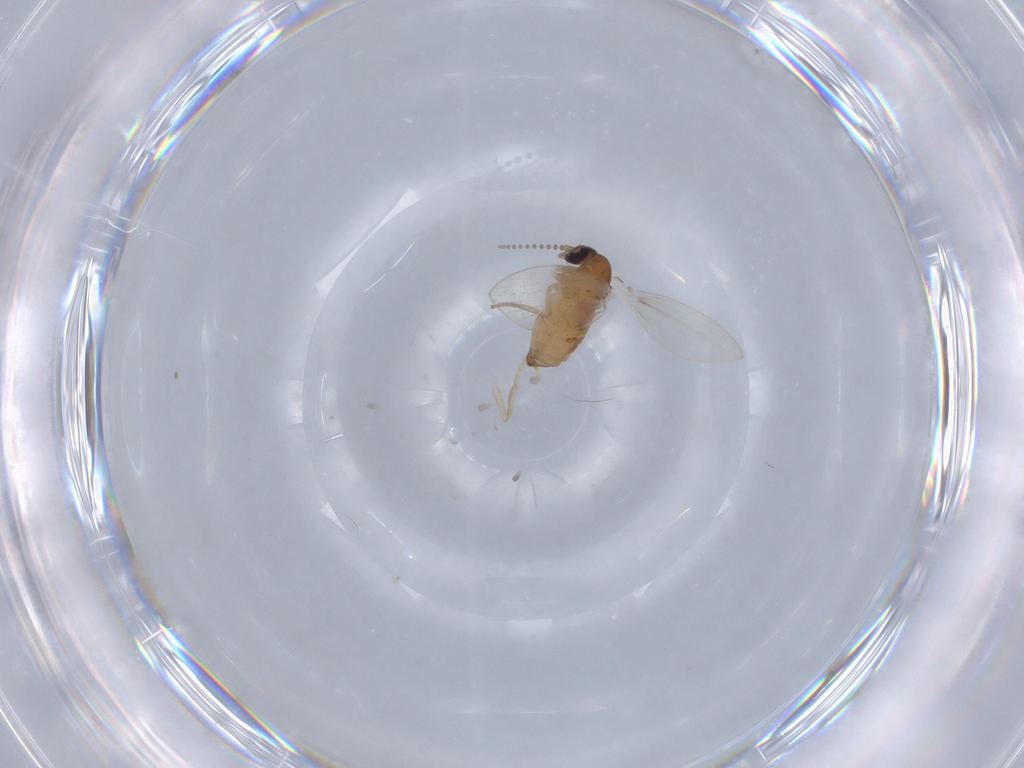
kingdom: Animalia
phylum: Arthropoda
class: Insecta
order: Diptera
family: Psychodidae
